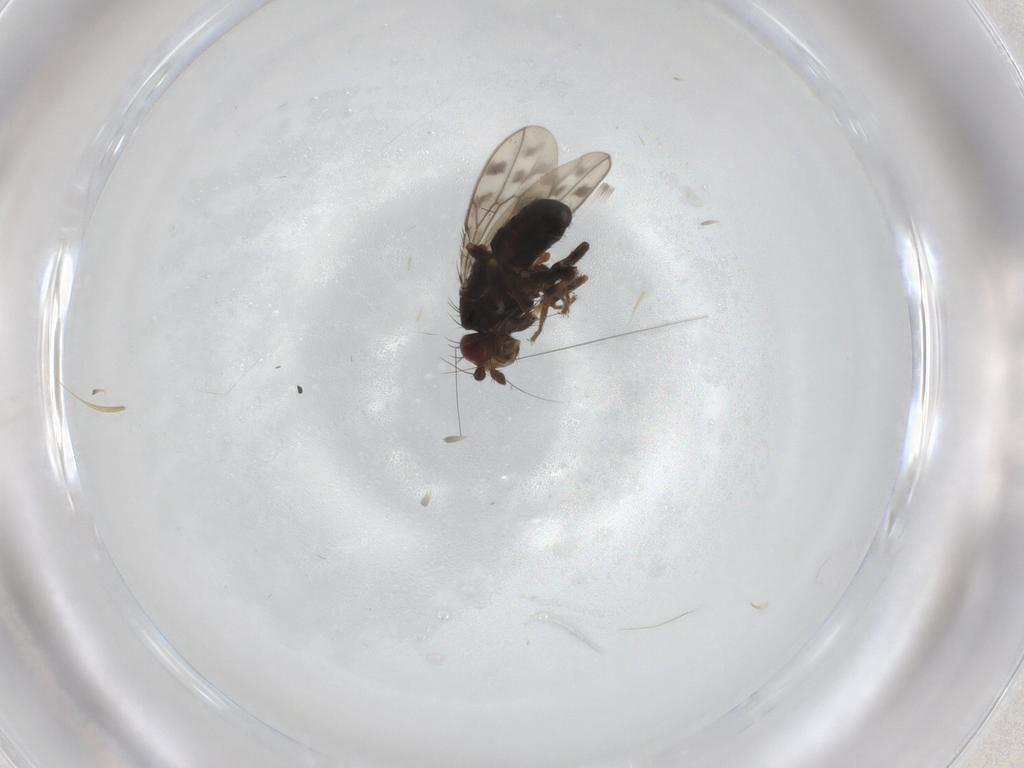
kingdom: Animalia
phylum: Arthropoda
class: Insecta
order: Diptera
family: Sphaeroceridae
